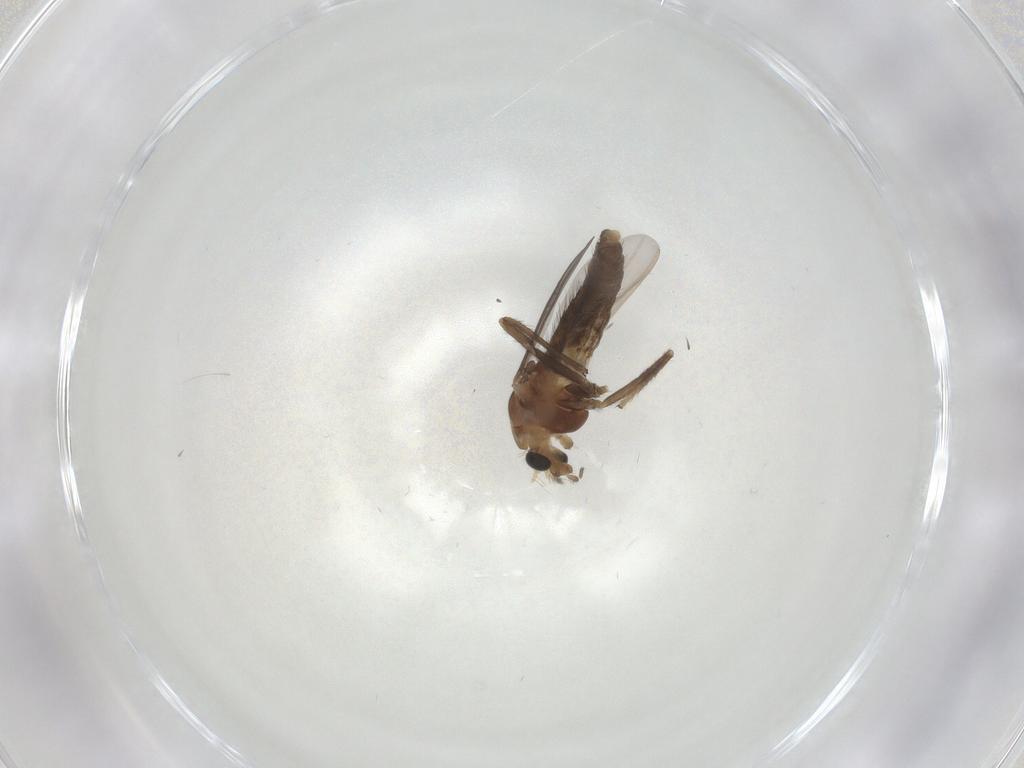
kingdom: Animalia
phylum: Arthropoda
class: Insecta
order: Diptera
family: Chironomidae
